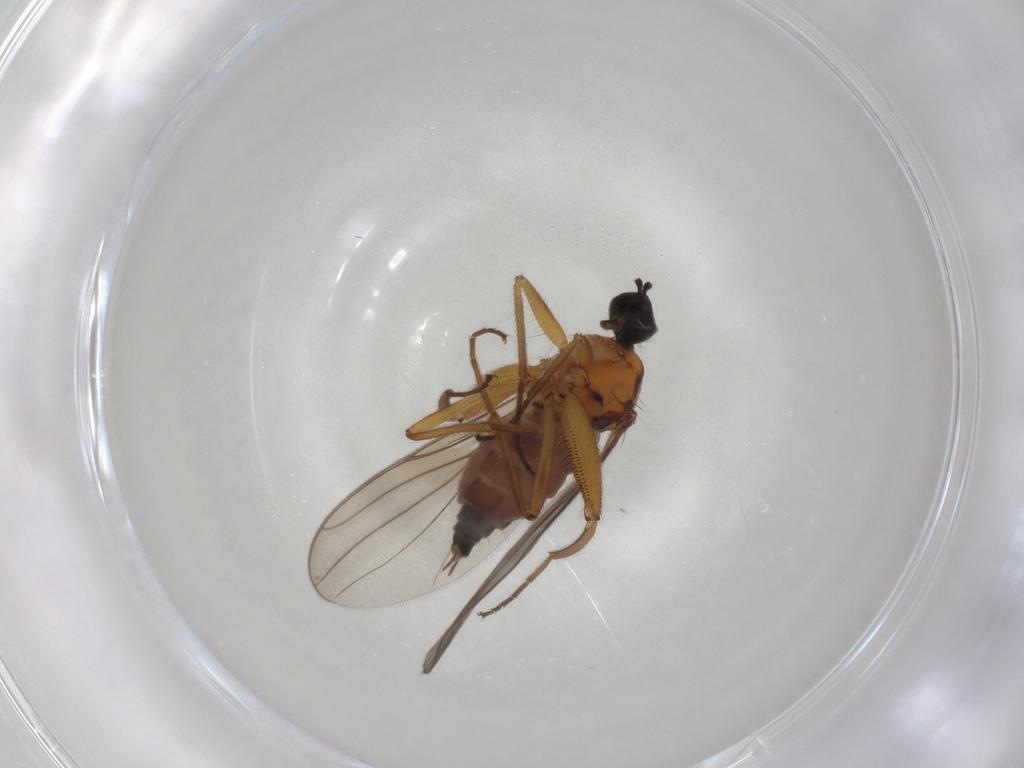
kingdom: Animalia
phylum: Arthropoda
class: Insecta
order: Diptera
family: Hybotidae
